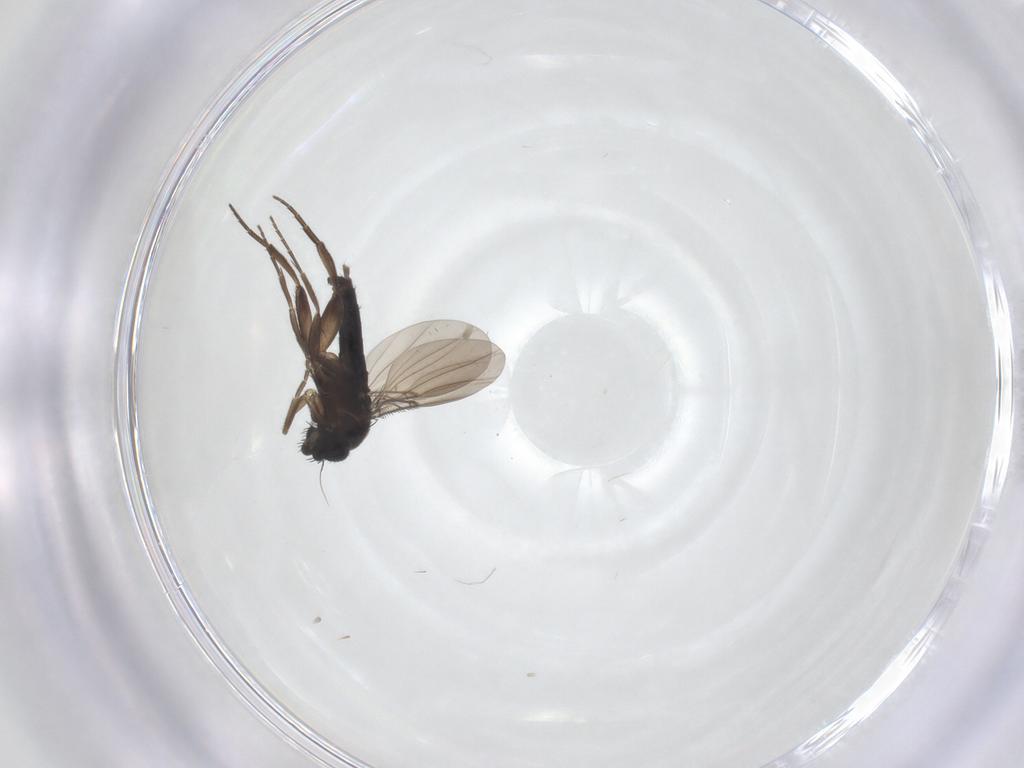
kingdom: Animalia
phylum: Arthropoda
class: Insecta
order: Diptera
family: Phoridae
